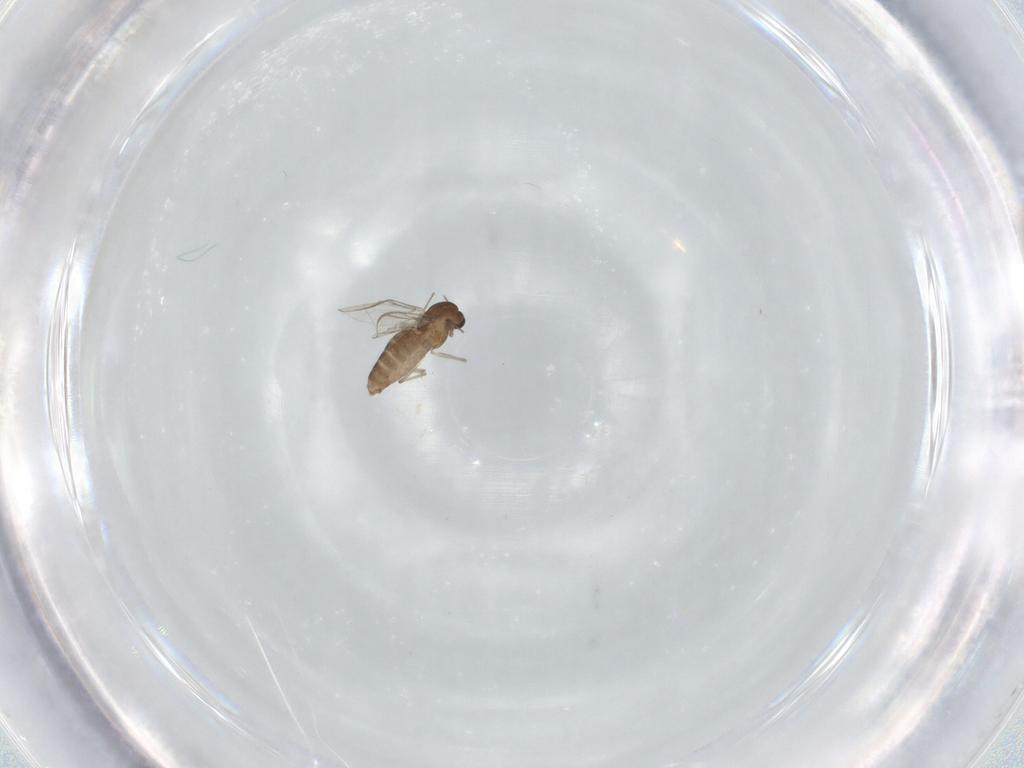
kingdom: Animalia
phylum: Arthropoda
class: Insecta
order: Diptera
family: Chironomidae
